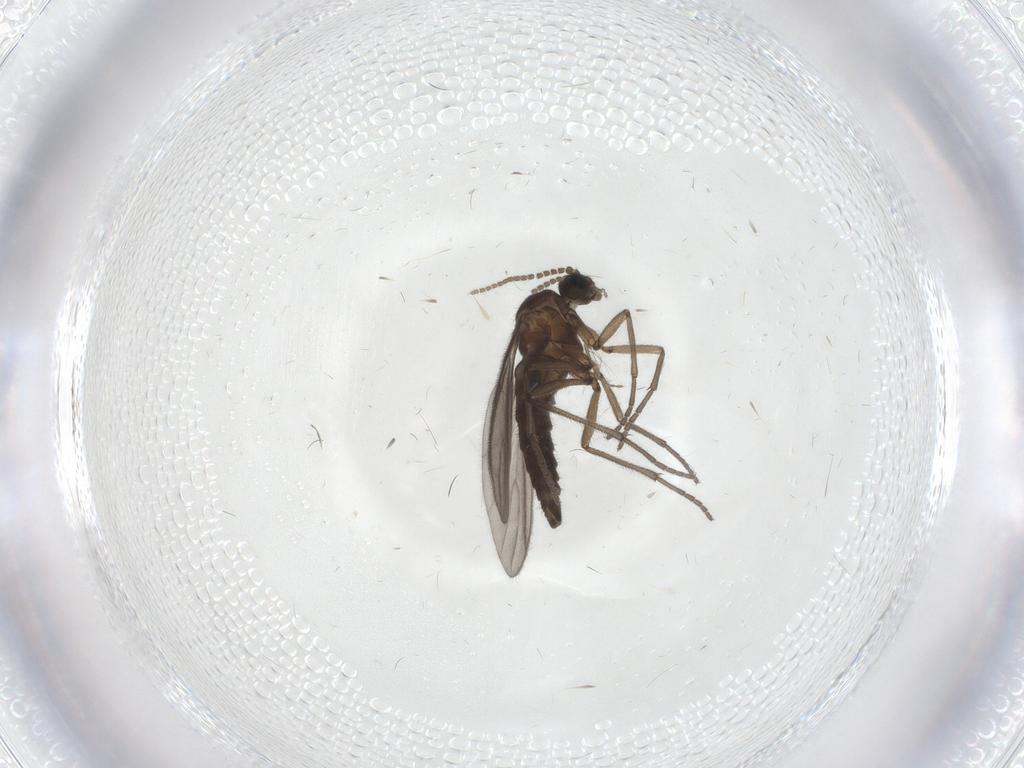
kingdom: Animalia
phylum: Arthropoda
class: Insecta
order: Diptera
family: Sciaridae
